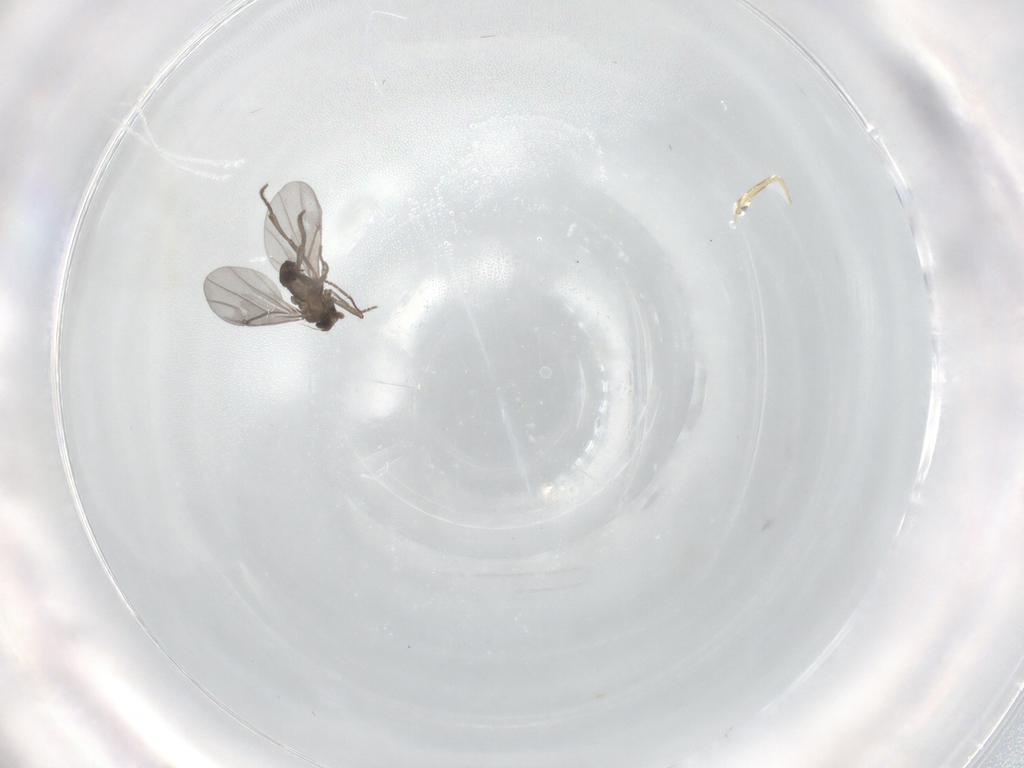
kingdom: Animalia
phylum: Arthropoda
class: Insecta
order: Diptera
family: Phoridae
